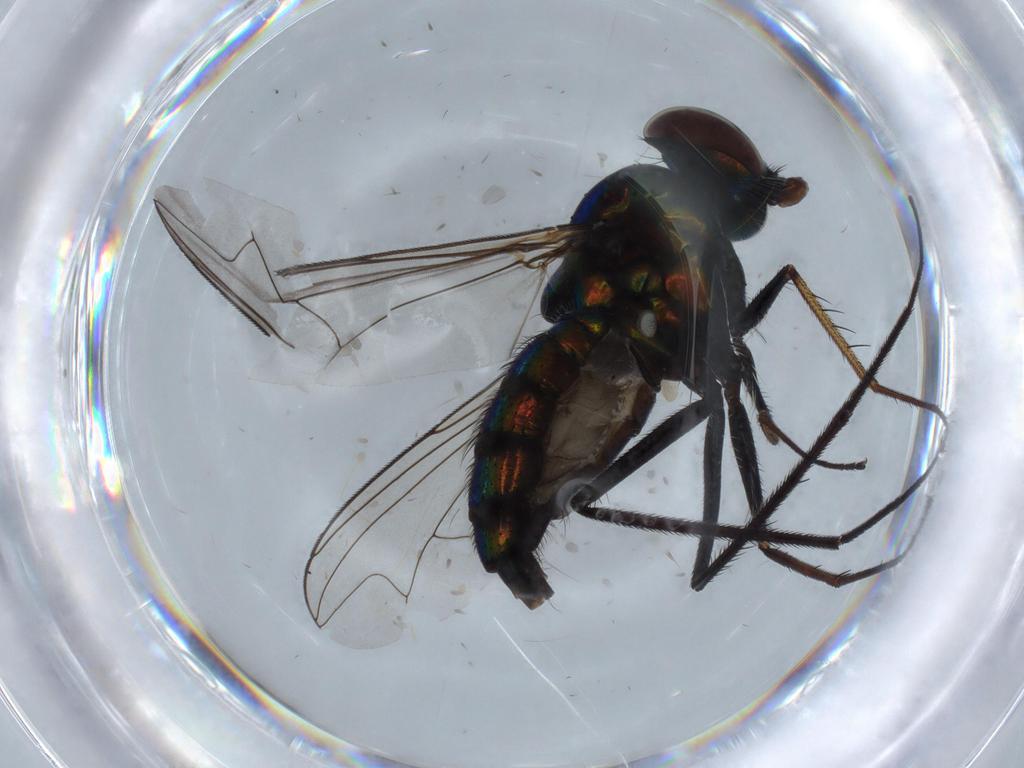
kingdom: Animalia
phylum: Arthropoda
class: Insecta
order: Diptera
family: Dolichopodidae
